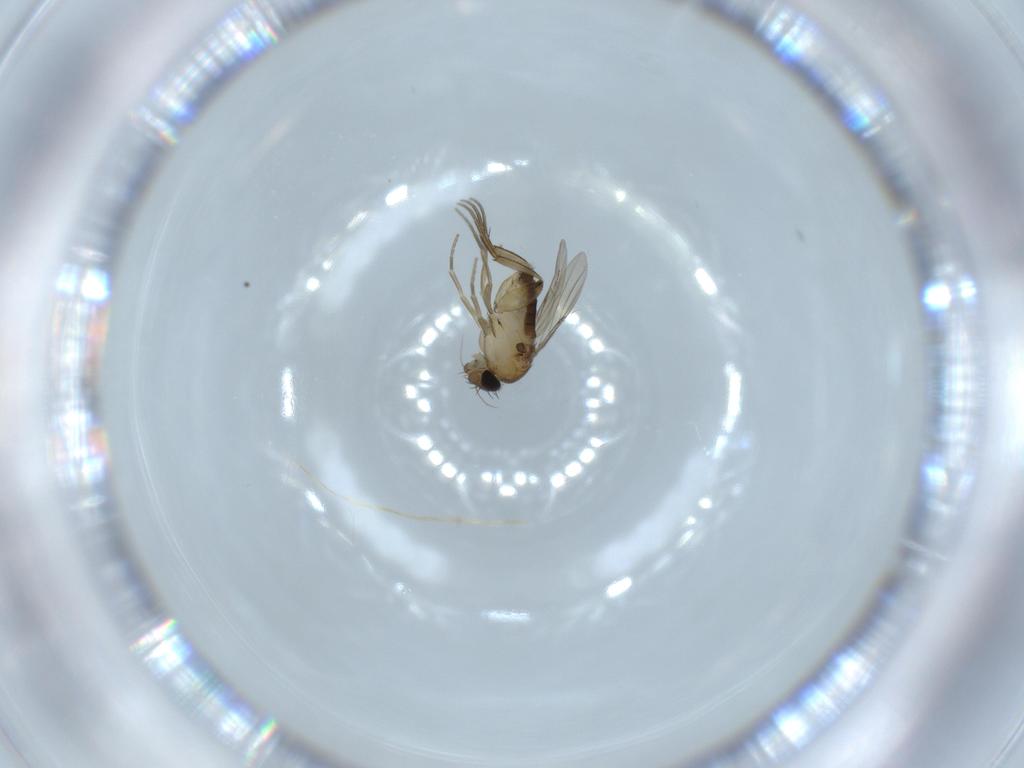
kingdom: Animalia
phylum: Arthropoda
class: Insecta
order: Diptera
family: Phoridae
